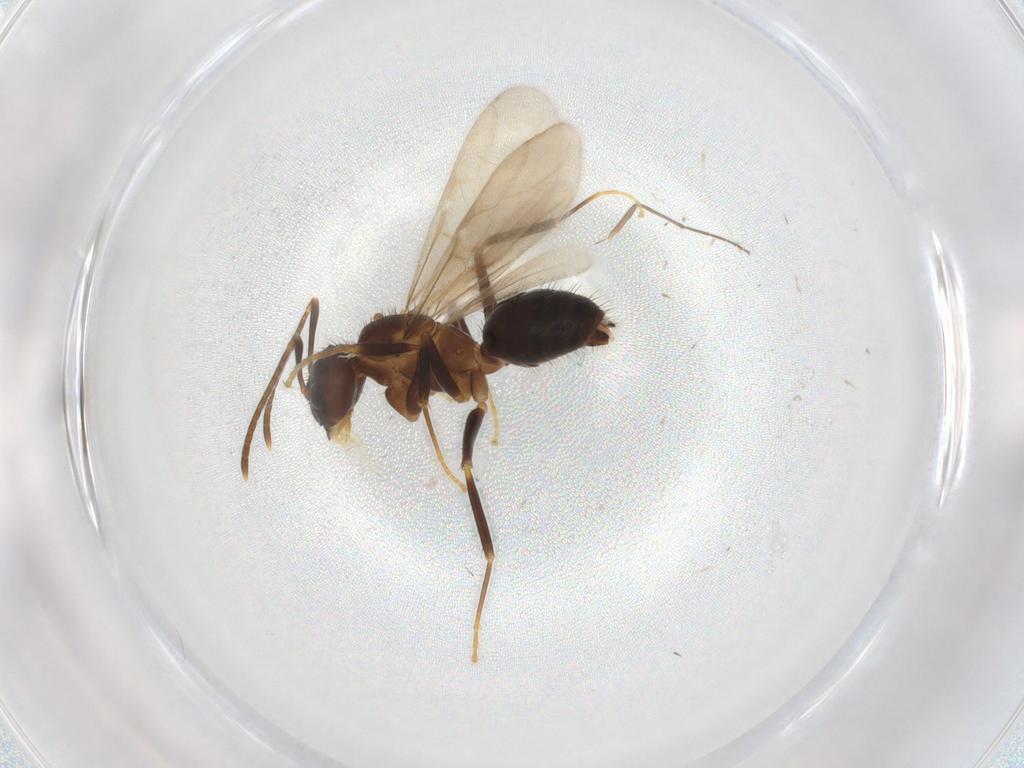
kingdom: Animalia
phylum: Arthropoda
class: Insecta
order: Hymenoptera
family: Formicidae
